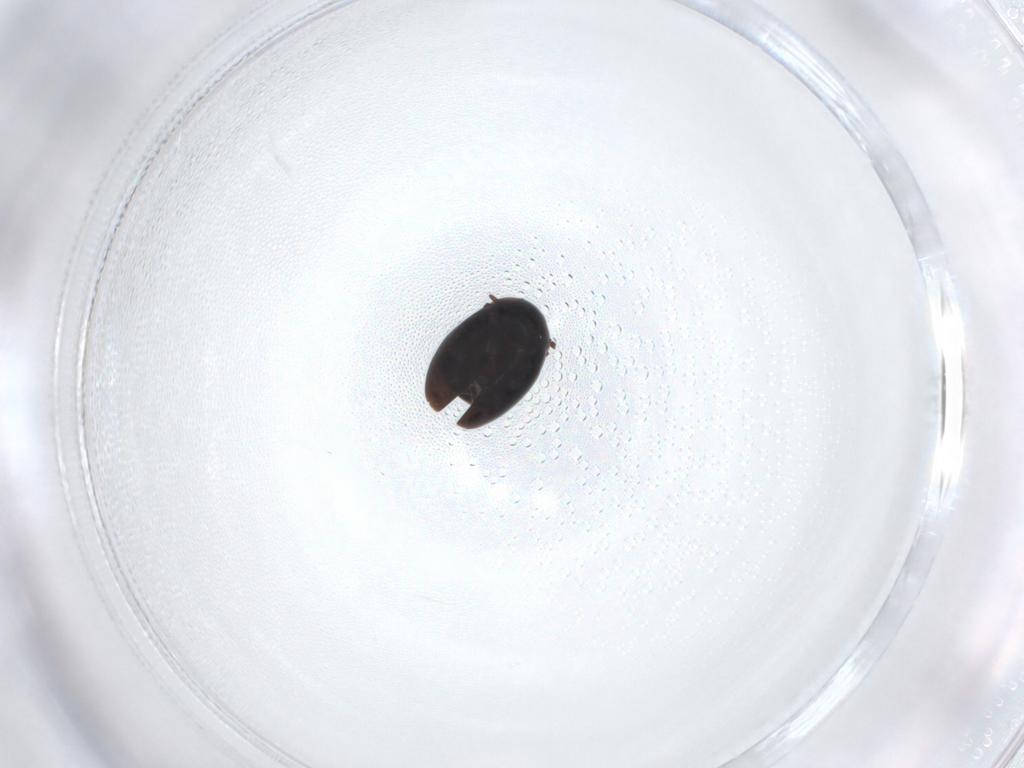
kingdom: Animalia
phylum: Arthropoda
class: Insecta
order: Coleoptera
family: Corylophidae
